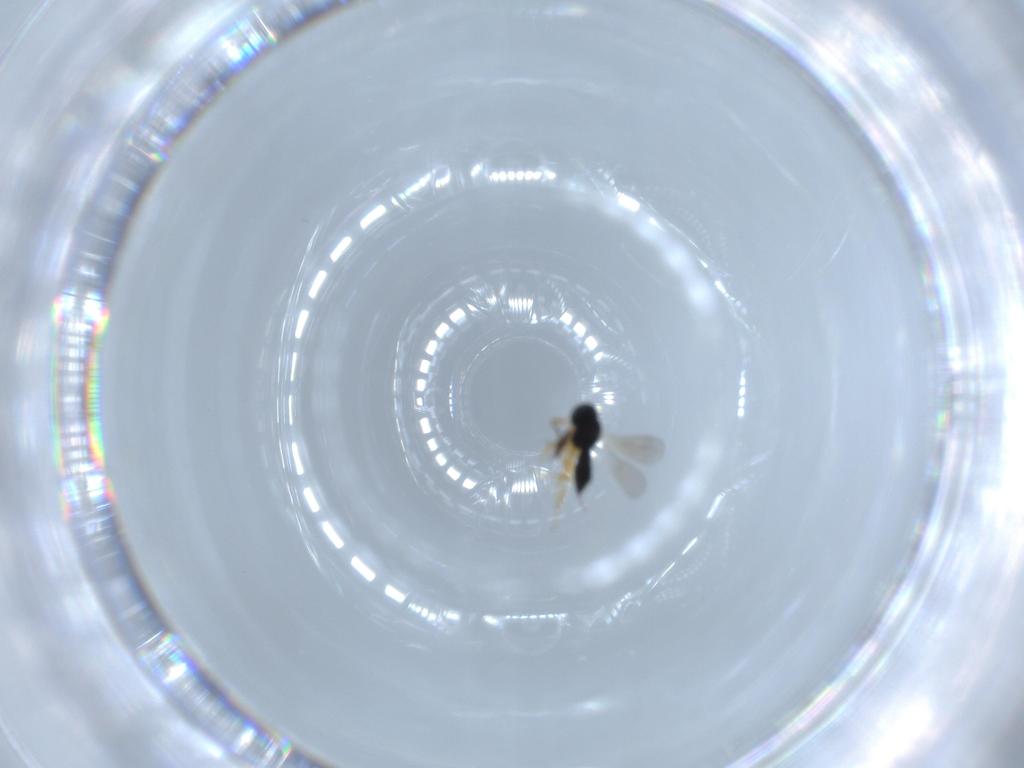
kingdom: Animalia
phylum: Arthropoda
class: Insecta
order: Hymenoptera
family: Scelionidae
